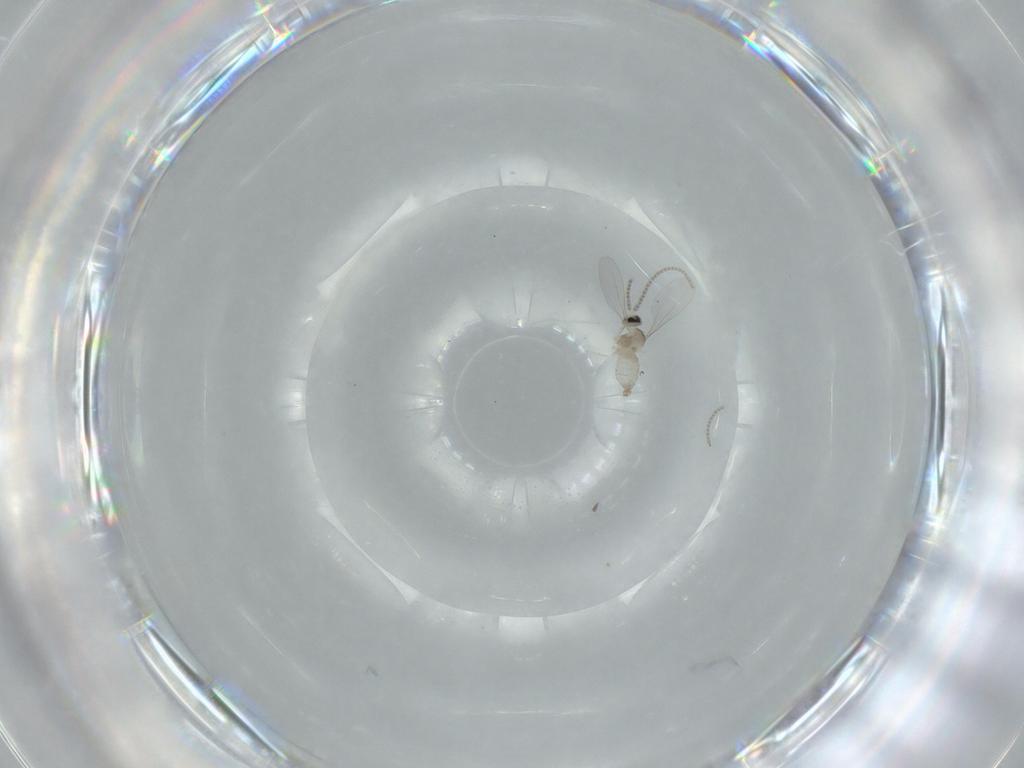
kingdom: Animalia
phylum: Arthropoda
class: Insecta
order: Diptera
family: Cecidomyiidae
